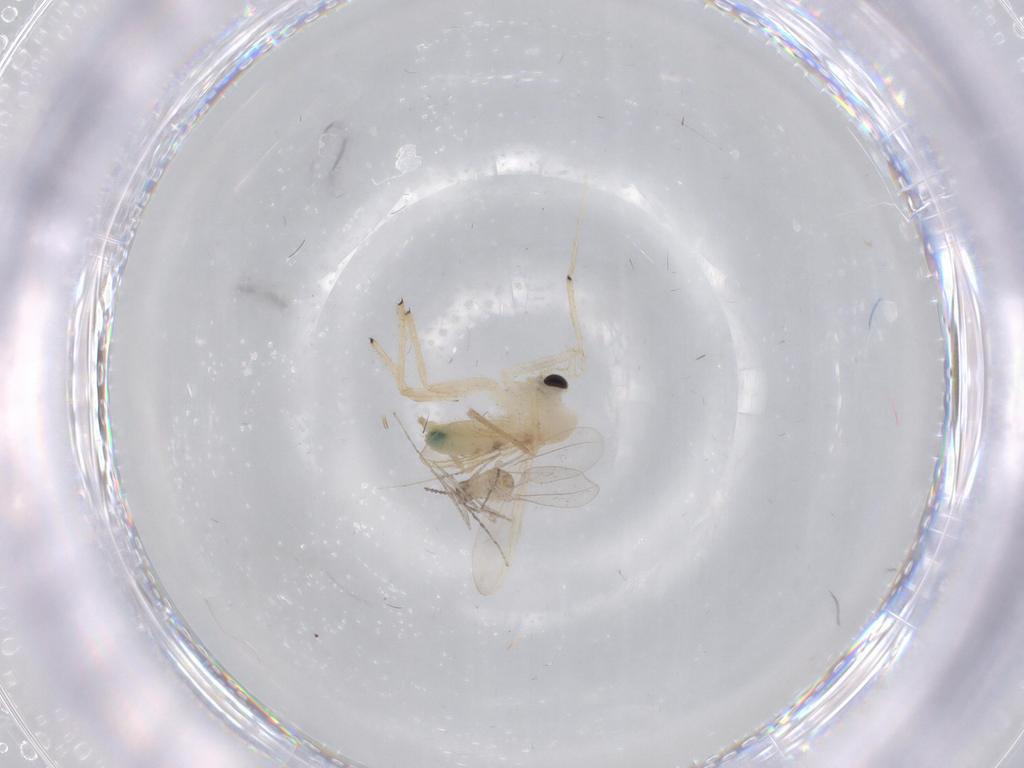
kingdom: Animalia
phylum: Arthropoda
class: Insecta
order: Diptera
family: Chironomidae
